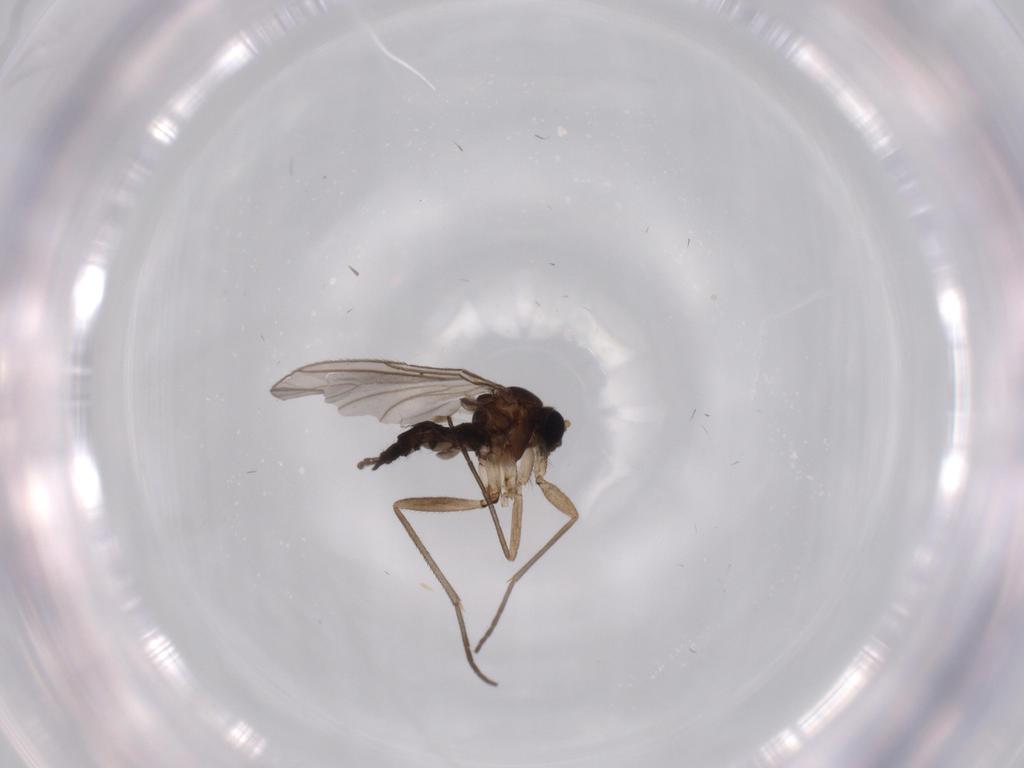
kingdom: Animalia
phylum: Arthropoda
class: Insecta
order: Diptera
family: Sciaridae
